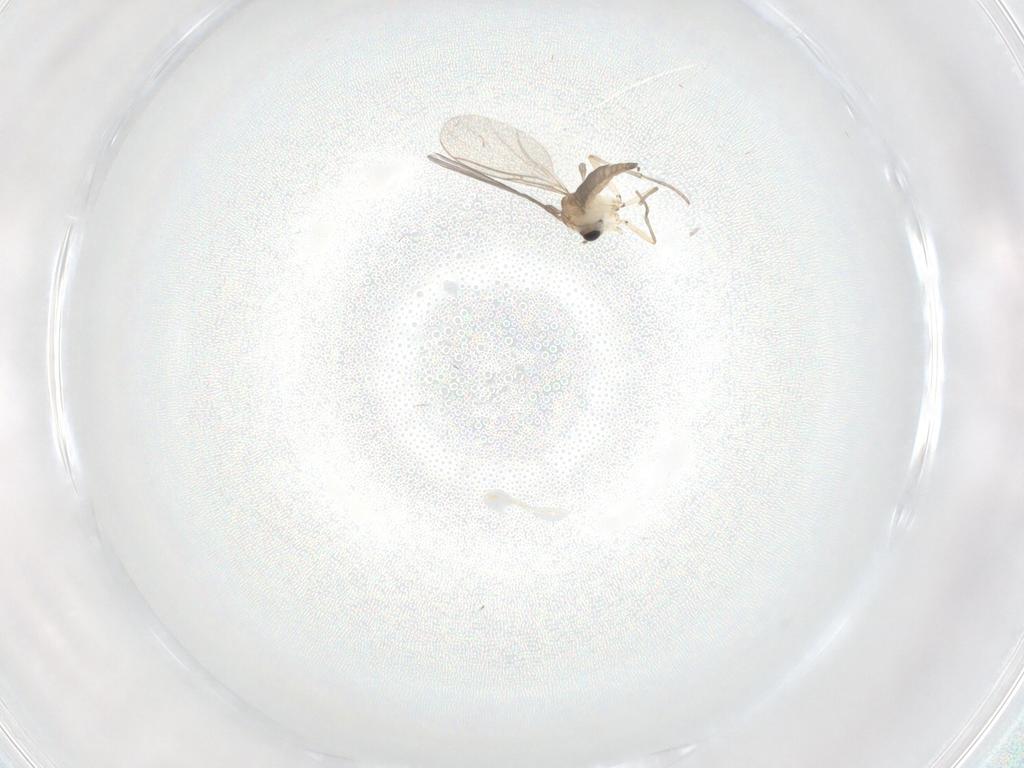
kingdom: Animalia
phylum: Arthropoda
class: Insecta
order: Diptera
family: Sciaridae
